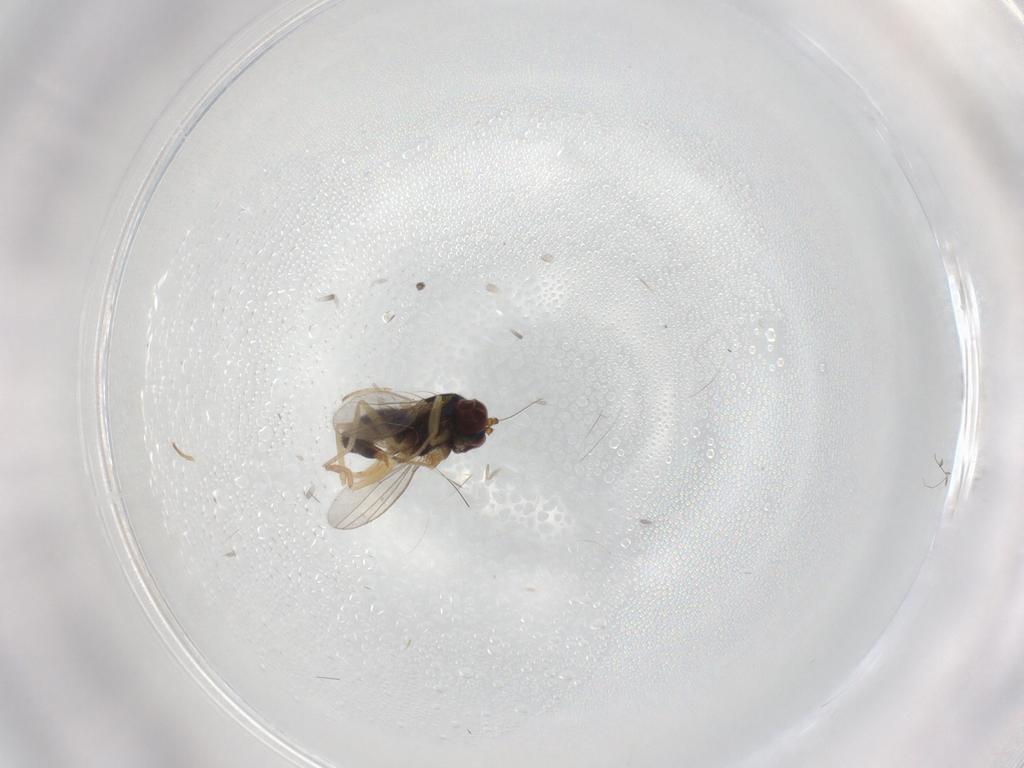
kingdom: Animalia
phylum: Arthropoda
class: Insecta
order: Diptera
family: Dolichopodidae
